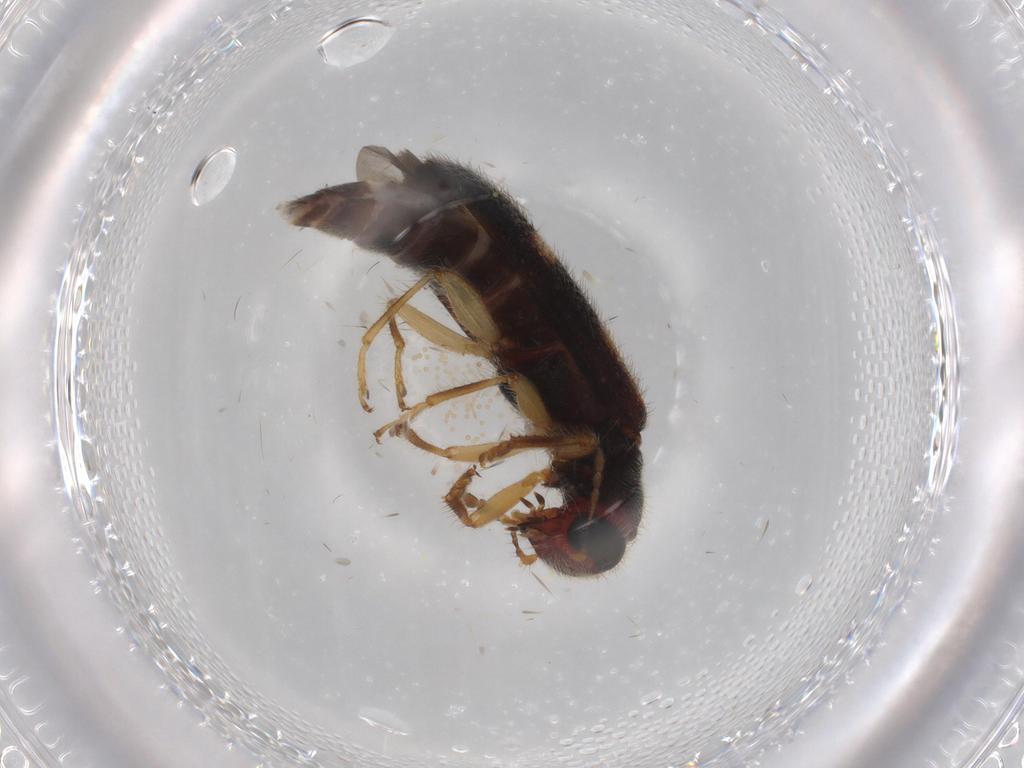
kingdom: Animalia
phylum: Arthropoda
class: Insecta
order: Coleoptera
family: Cleridae
